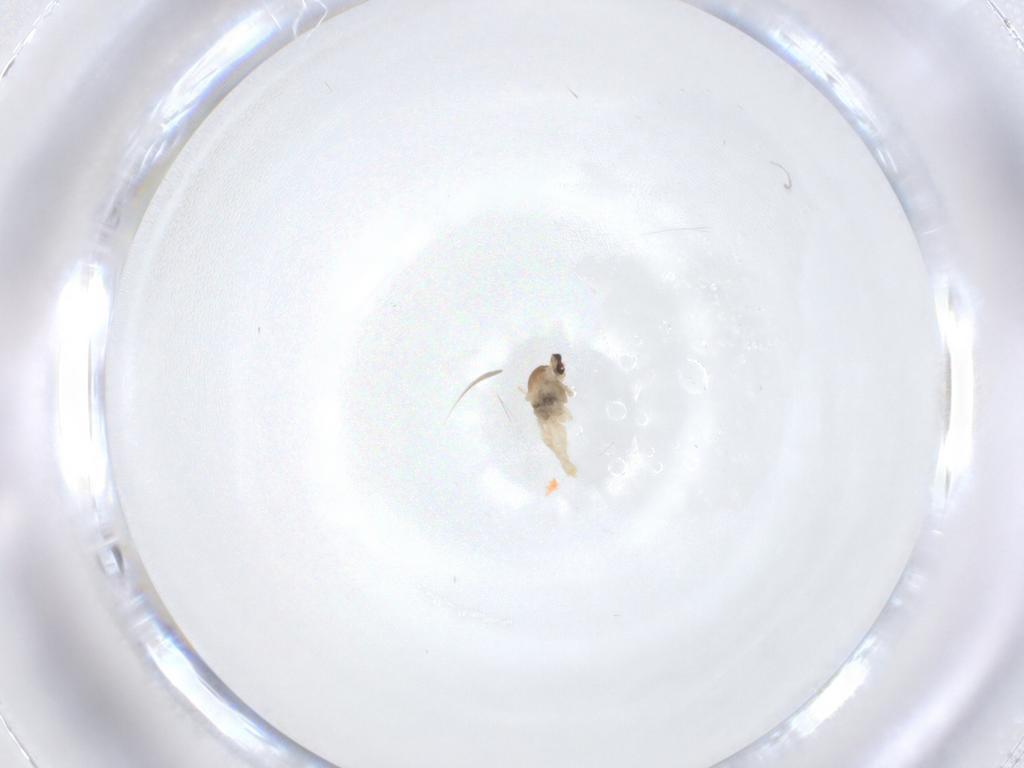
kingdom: Animalia
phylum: Arthropoda
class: Insecta
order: Diptera
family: Cecidomyiidae
